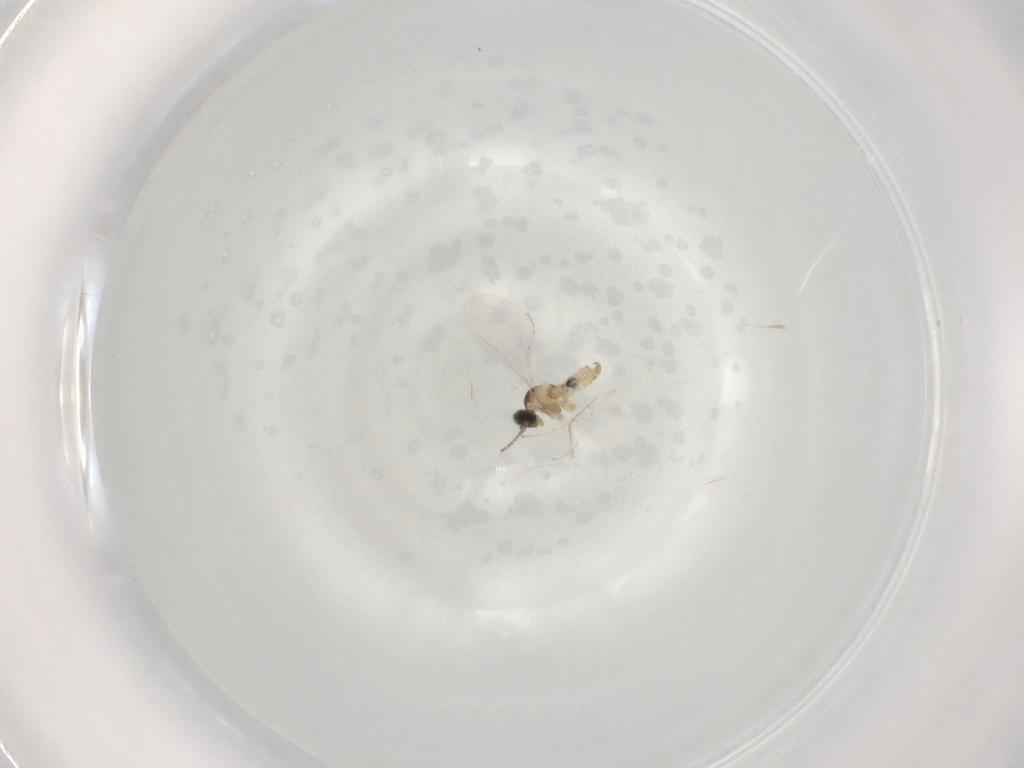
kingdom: Animalia
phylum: Arthropoda
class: Insecta
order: Diptera
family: Cecidomyiidae
